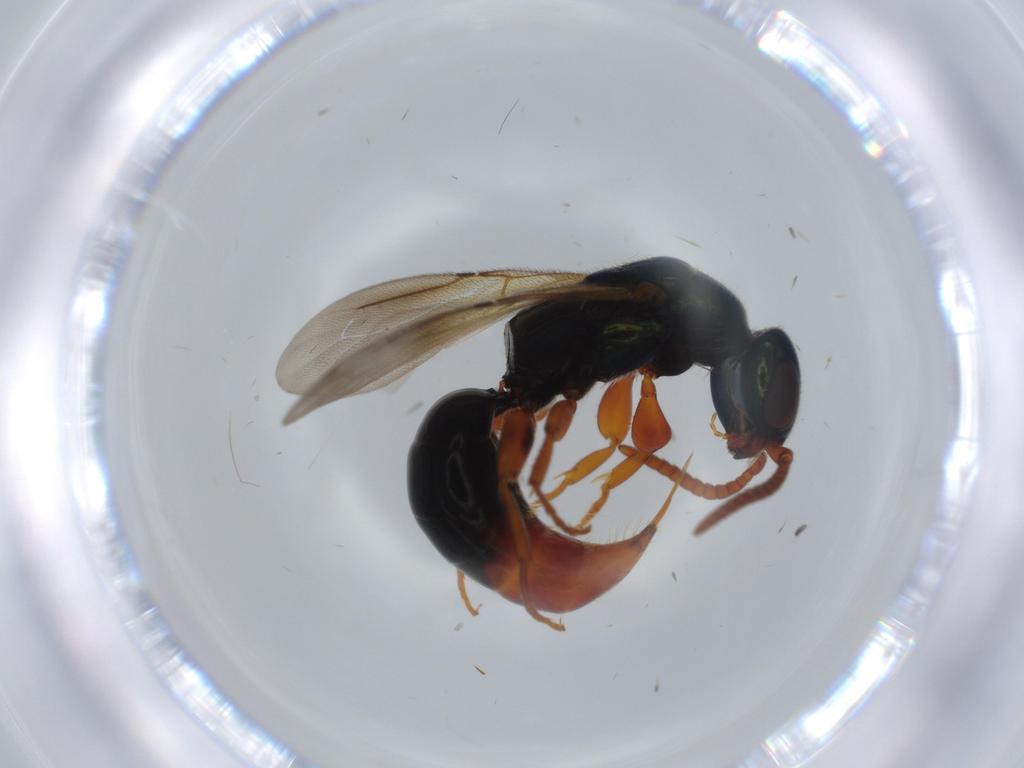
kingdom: Animalia
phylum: Arthropoda
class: Insecta
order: Hymenoptera
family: Bethylidae
